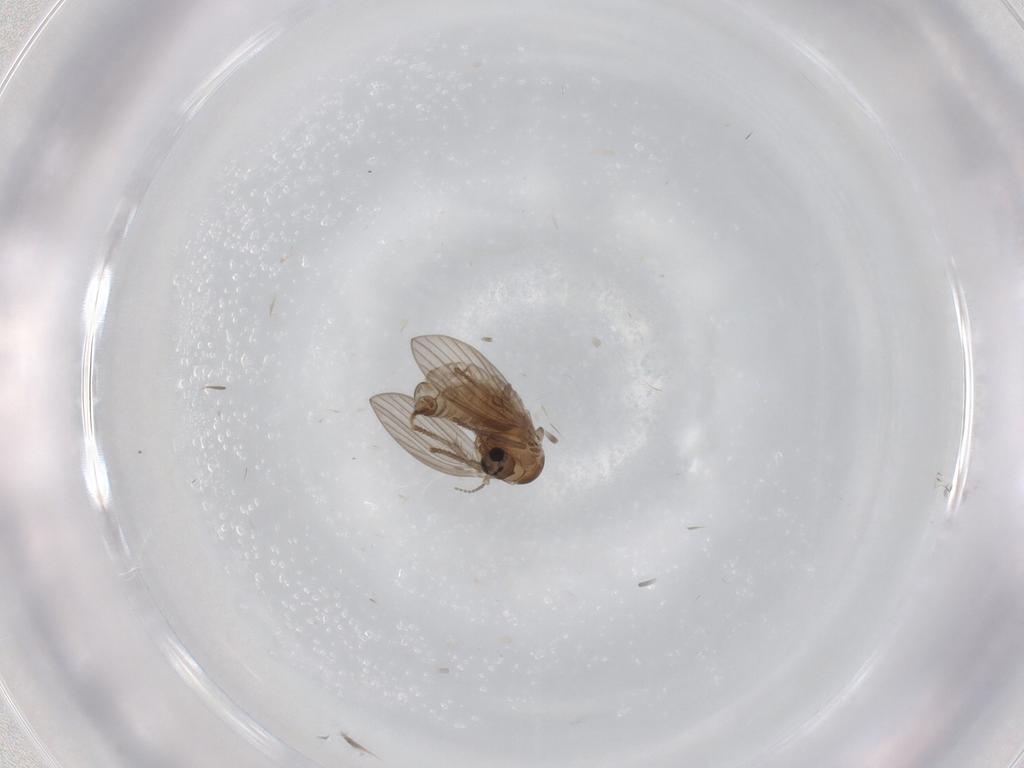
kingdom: Animalia
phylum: Arthropoda
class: Insecta
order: Diptera
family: Psychodidae
